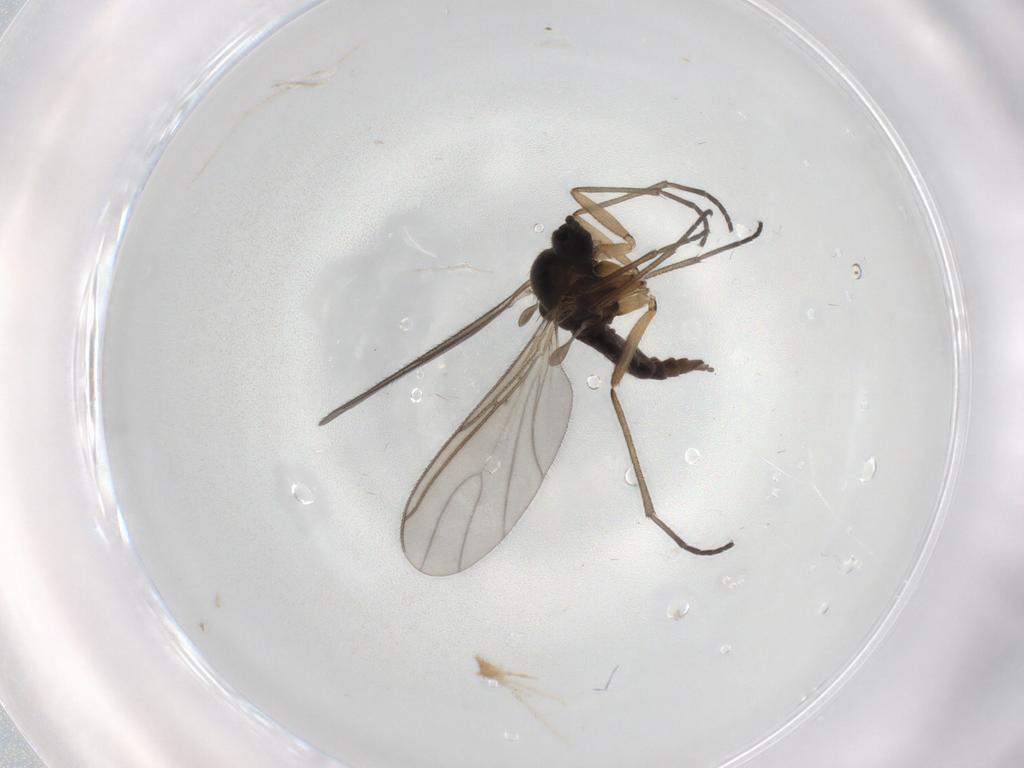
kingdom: Animalia
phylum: Arthropoda
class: Insecta
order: Diptera
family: Sciaridae
